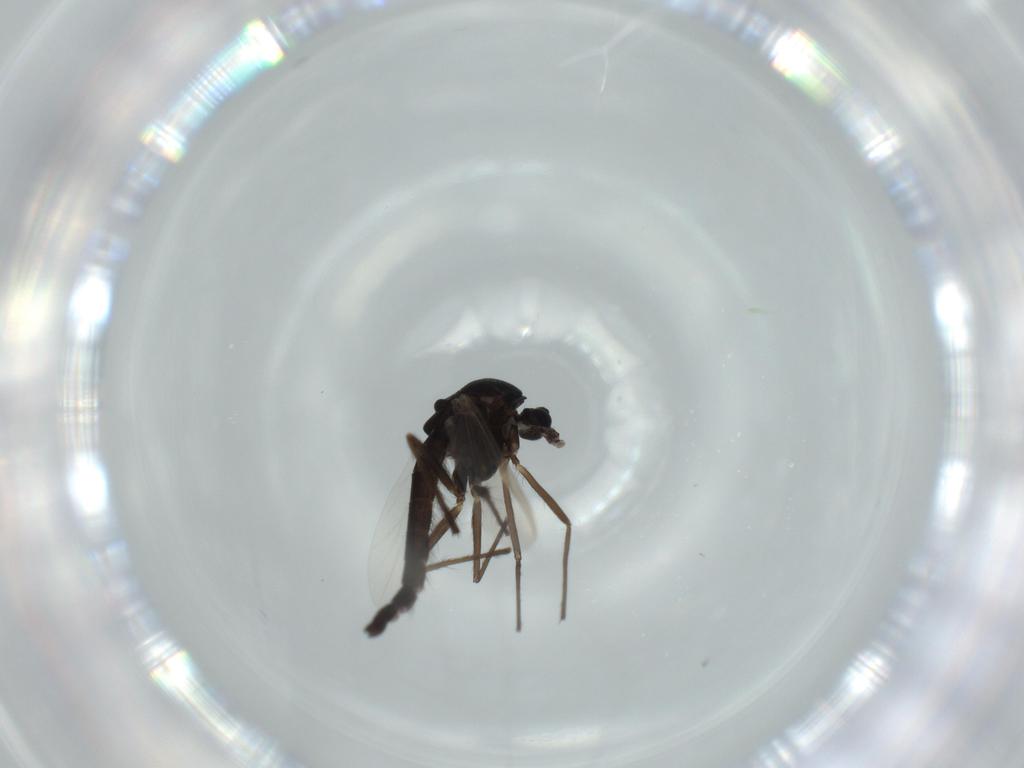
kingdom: Animalia
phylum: Arthropoda
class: Insecta
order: Diptera
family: Chironomidae
